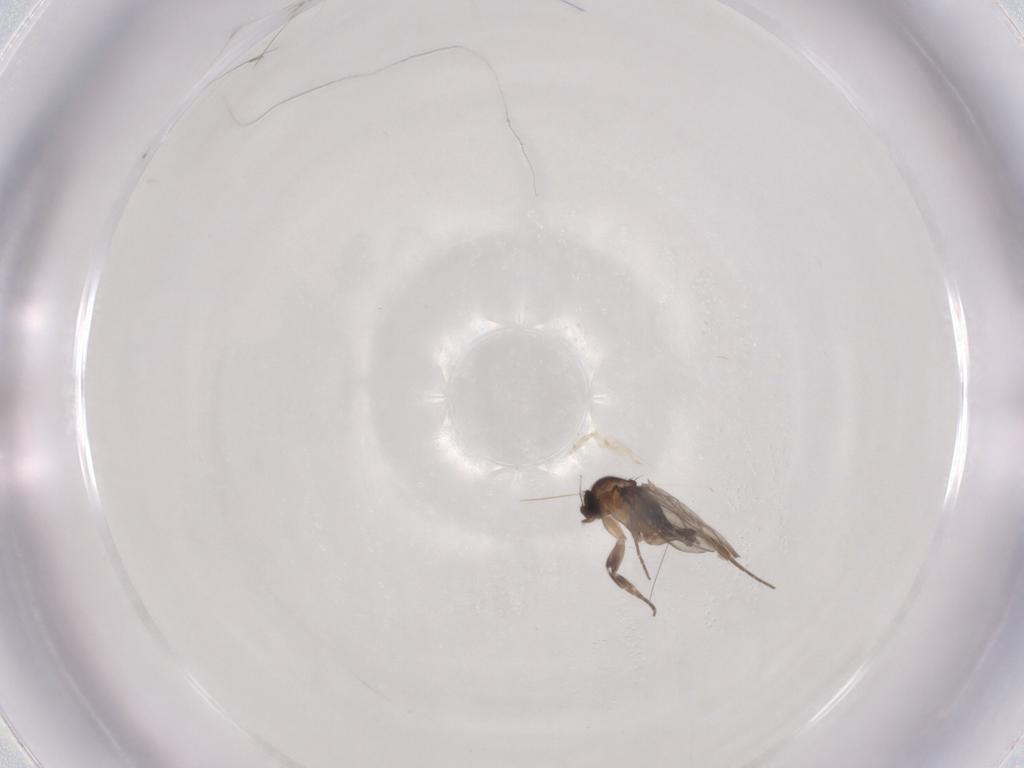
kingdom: Animalia
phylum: Arthropoda
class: Insecta
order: Diptera
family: Phoridae
